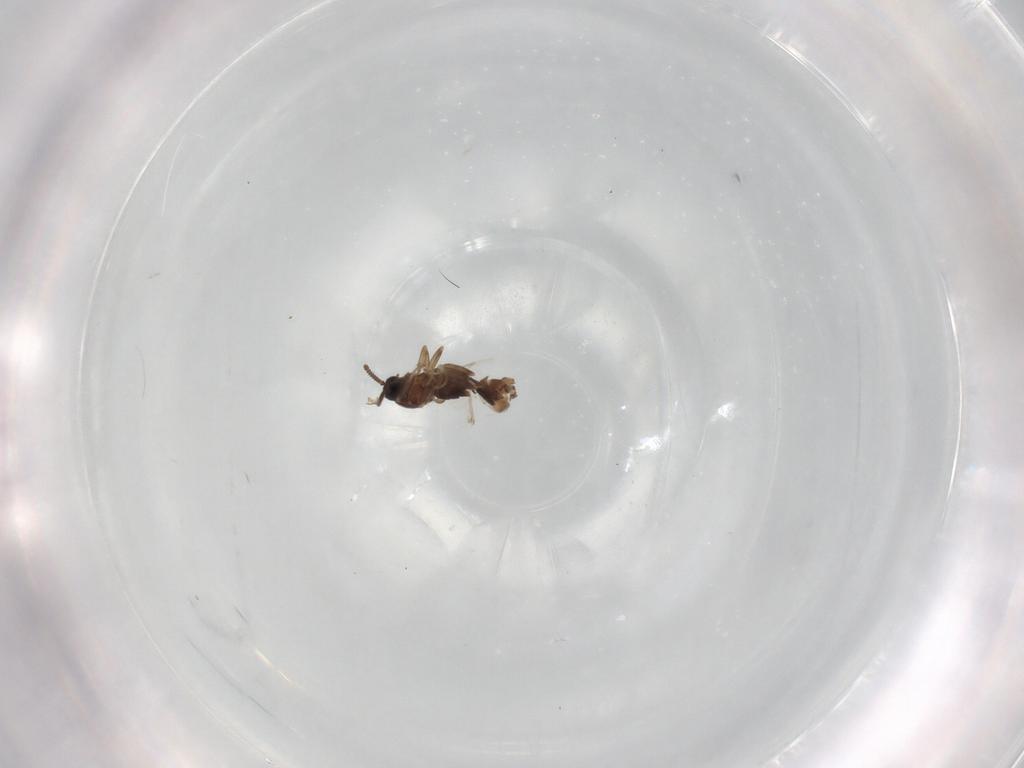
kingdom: Animalia
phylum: Arthropoda
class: Insecta
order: Diptera
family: Scatopsidae
